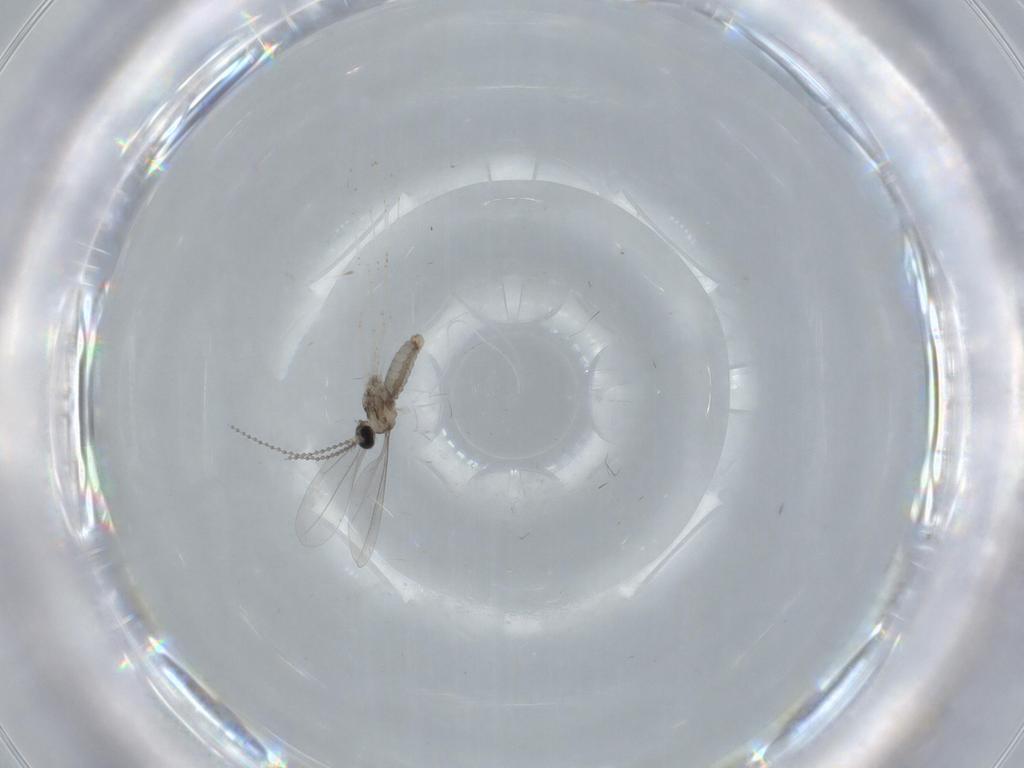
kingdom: Animalia
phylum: Arthropoda
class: Insecta
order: Diptera
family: Cecidomyiidae
